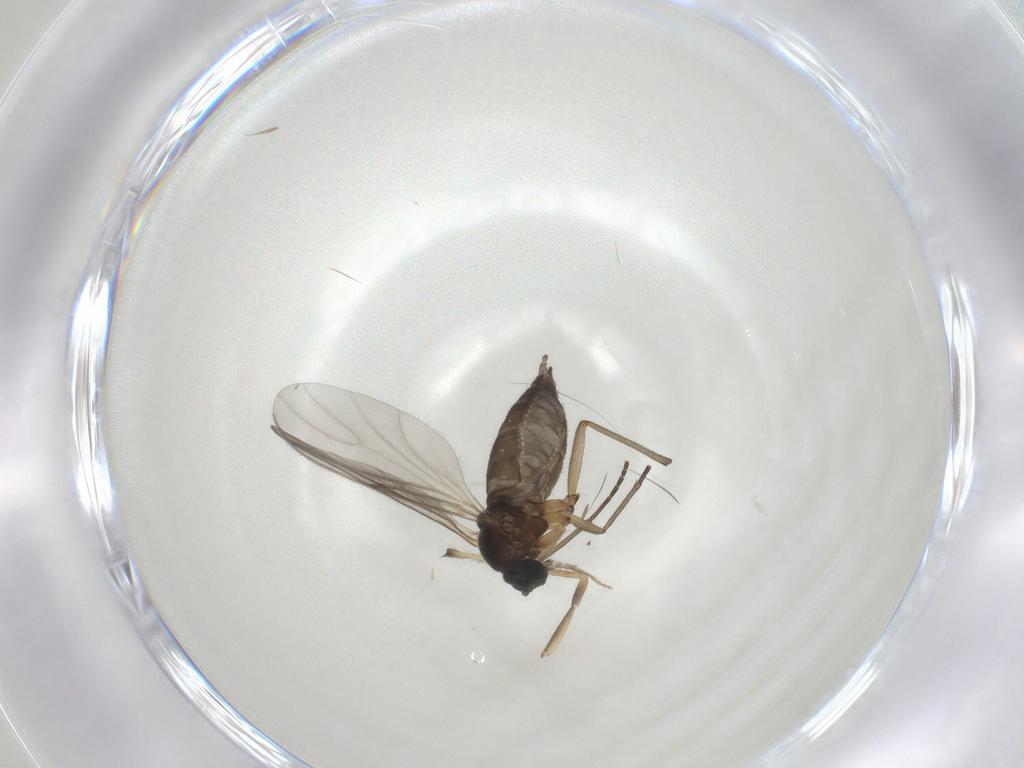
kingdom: Animalia
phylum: Arthropoda
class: Insecta
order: Diptera
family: Sciaridae
